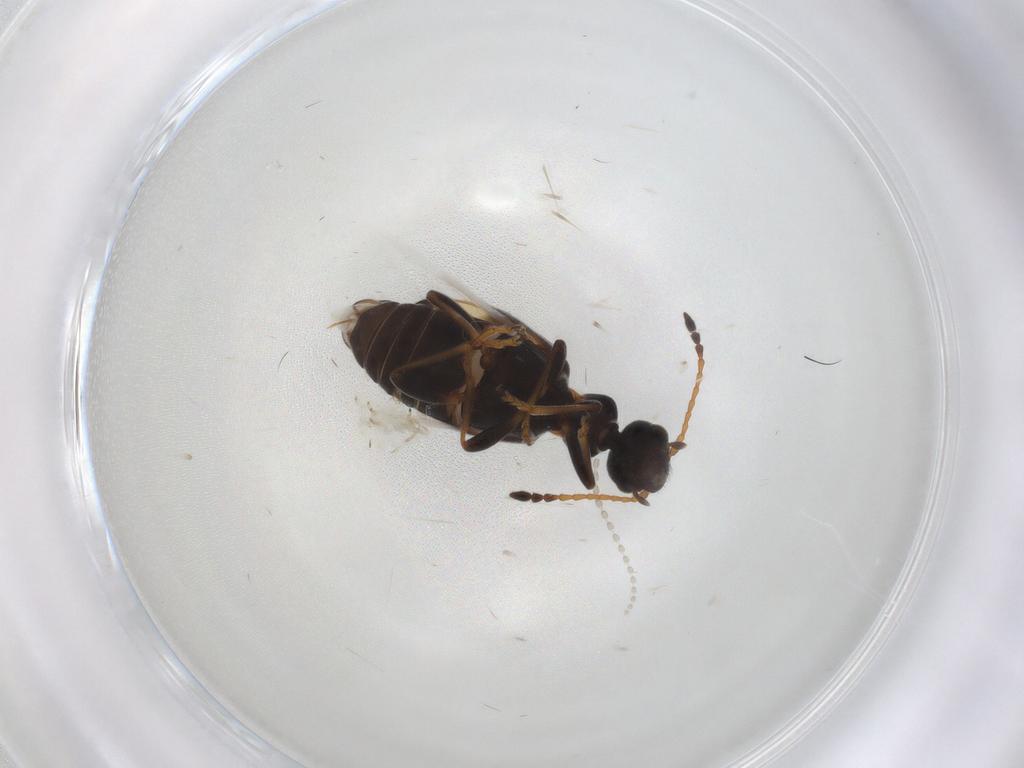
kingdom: Animalia
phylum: Arthropoda
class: Insecta
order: Coleoptera
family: Anthicidae
